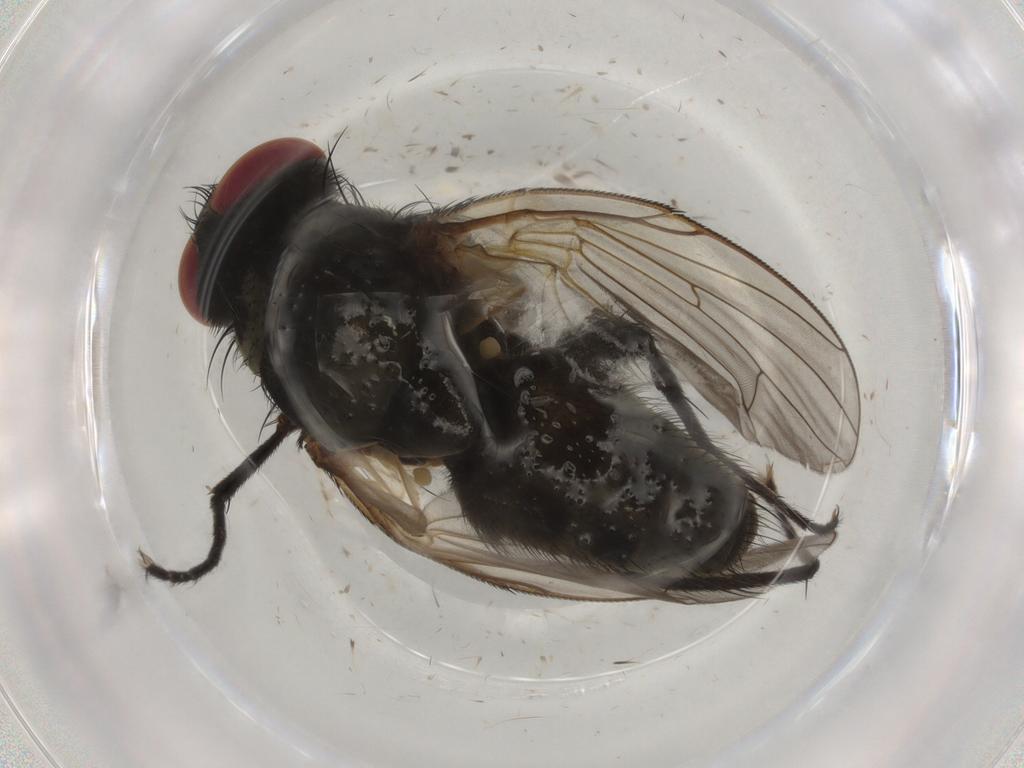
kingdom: Animalia
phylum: Arthropoda
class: Insecta
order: Diptera
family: Muscidae
